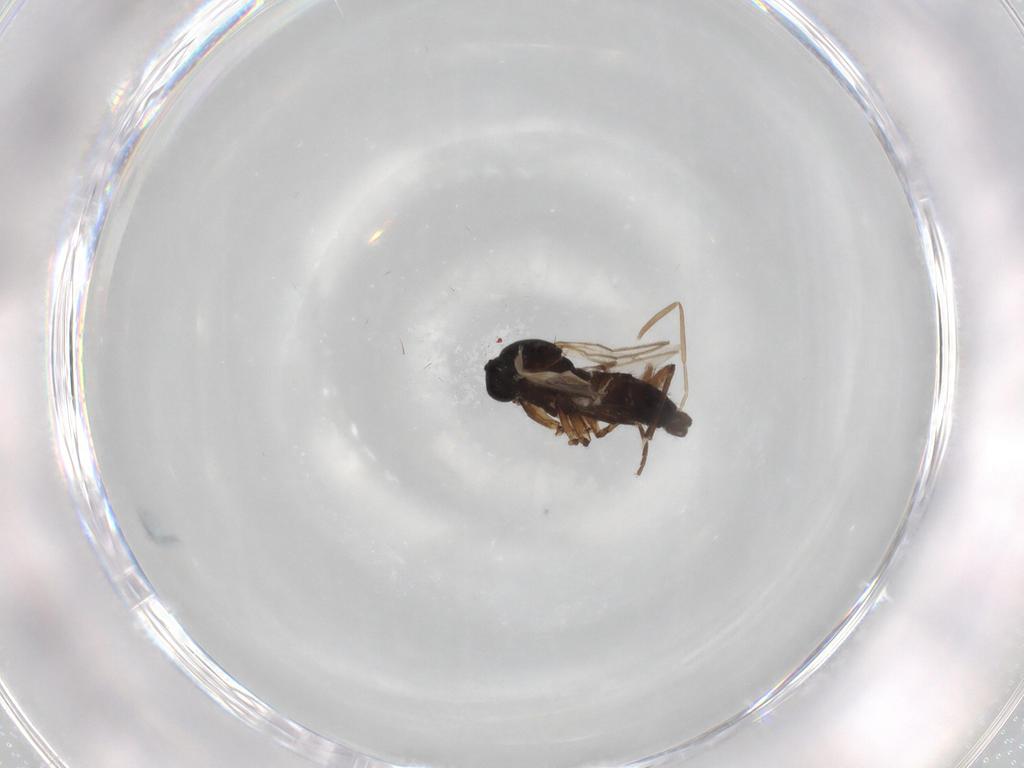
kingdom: Animalia
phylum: Arthropoda
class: Insecta
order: Diptera
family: Sciaridae
